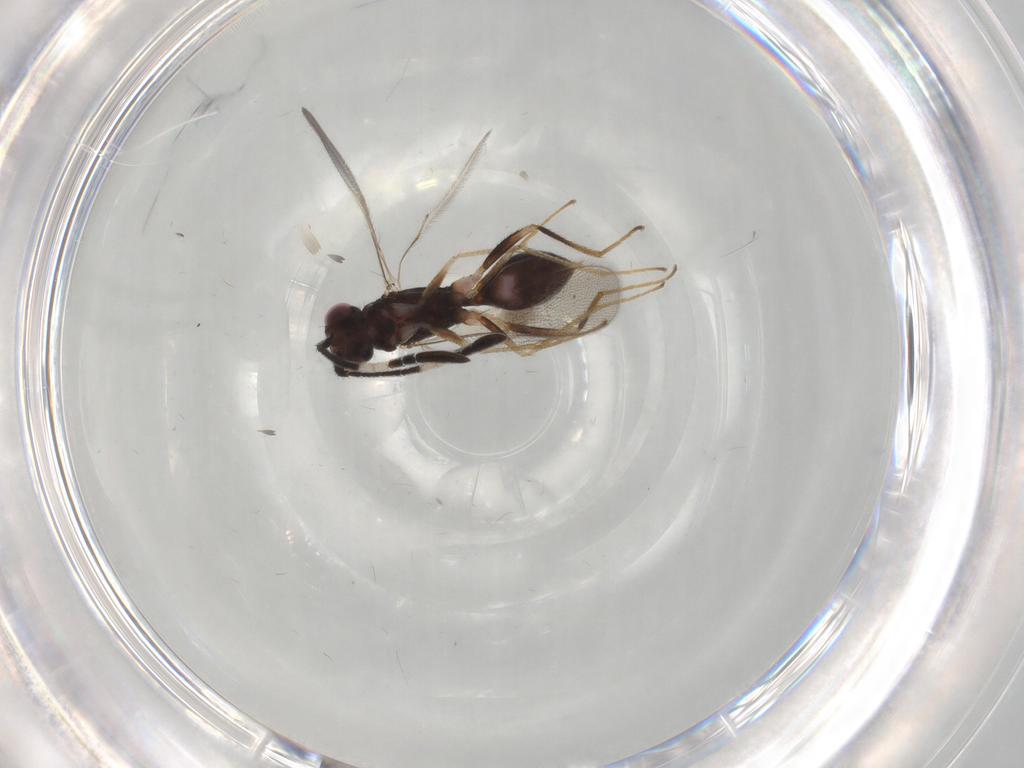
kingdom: Animalia
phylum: Arthropoda
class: Insecta
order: Hymenoptera
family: Mymaridae
